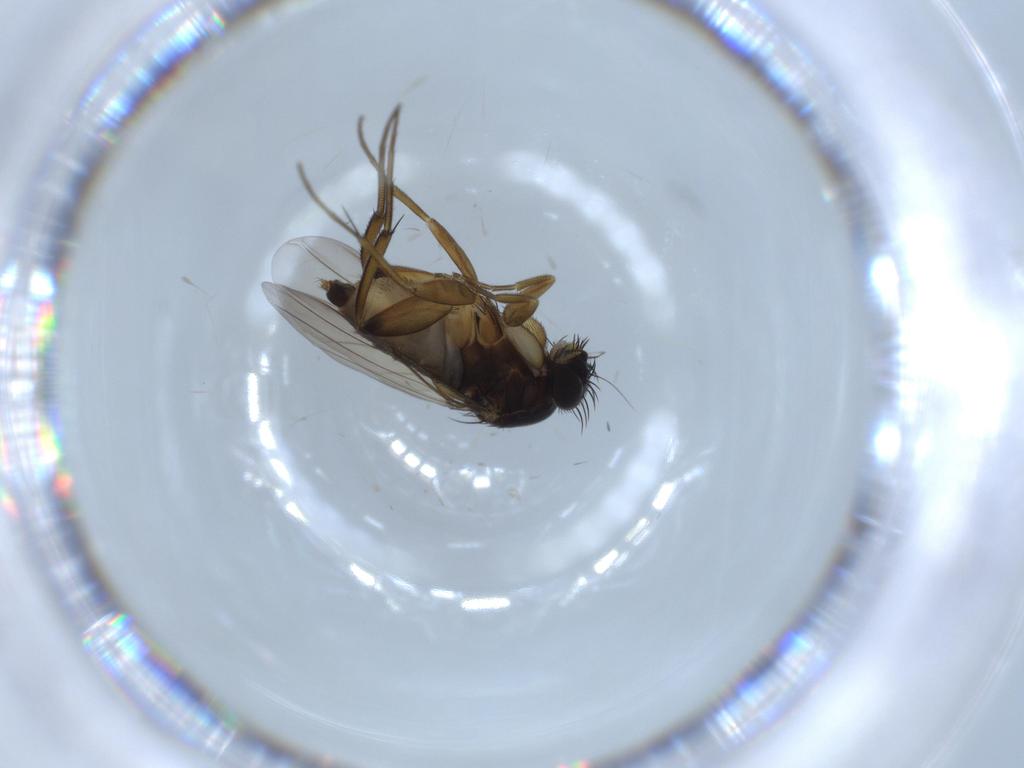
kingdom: Animalia
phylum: Arthropoda
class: Insecta
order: Diptera
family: Phoridae
